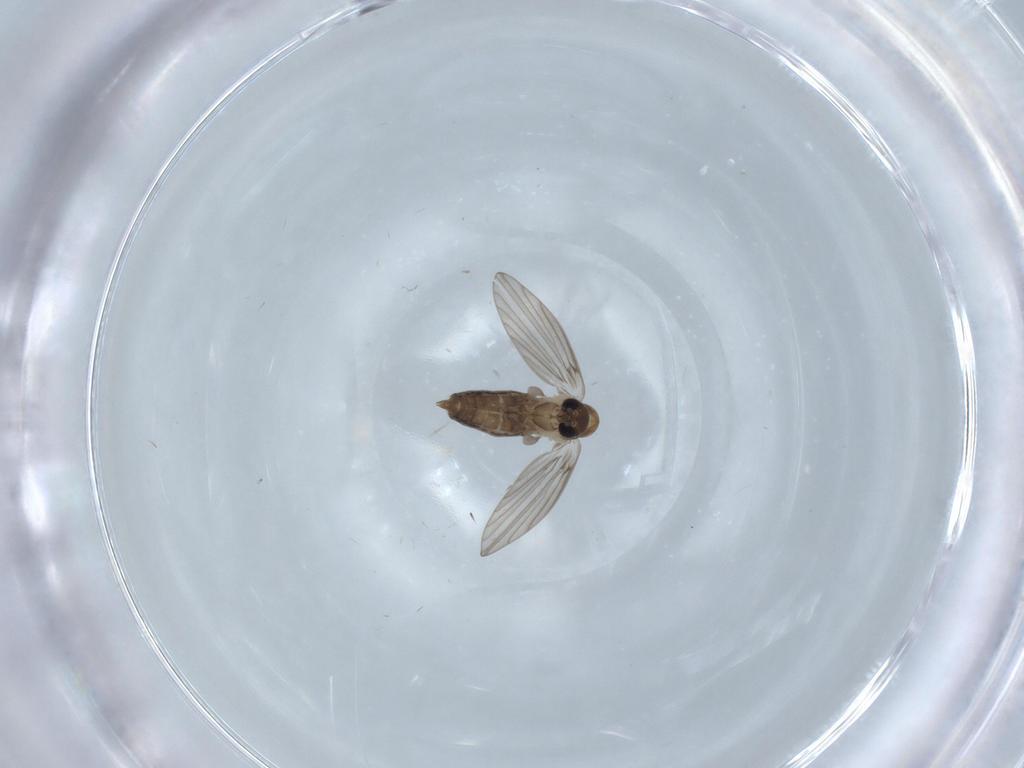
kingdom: Animalia
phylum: Arthropoda
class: Insecta
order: Diptera
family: Psychodidae
